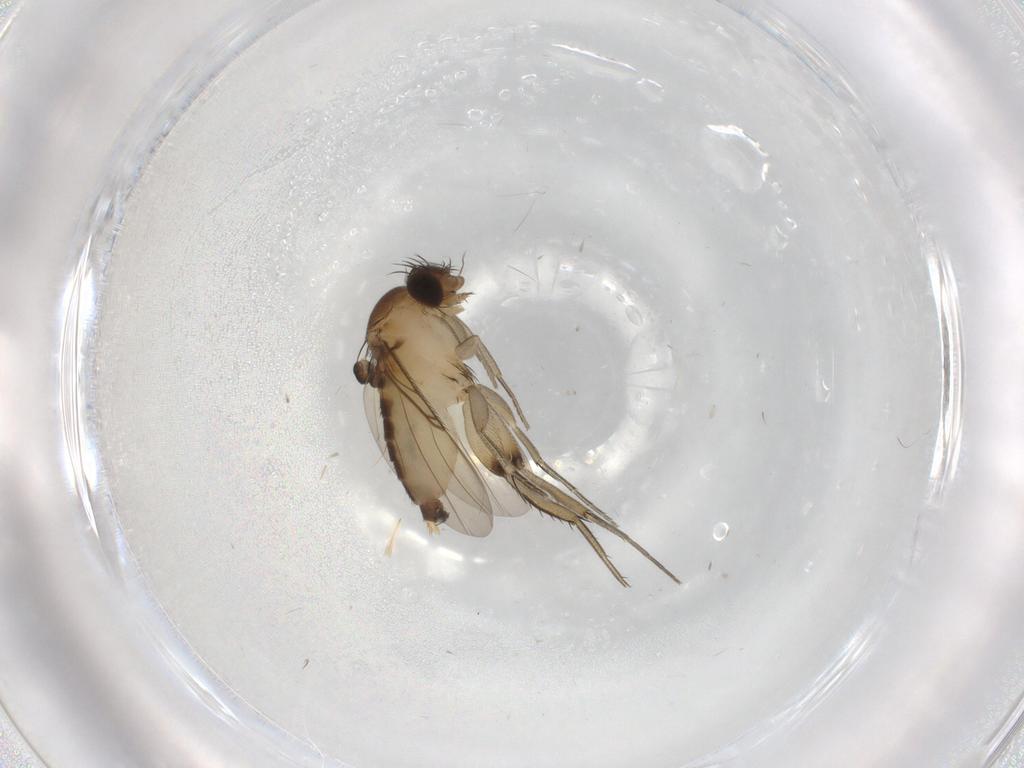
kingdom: Animalia
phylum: Arthropoda
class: Insecta
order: Diptera
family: Phoridae
